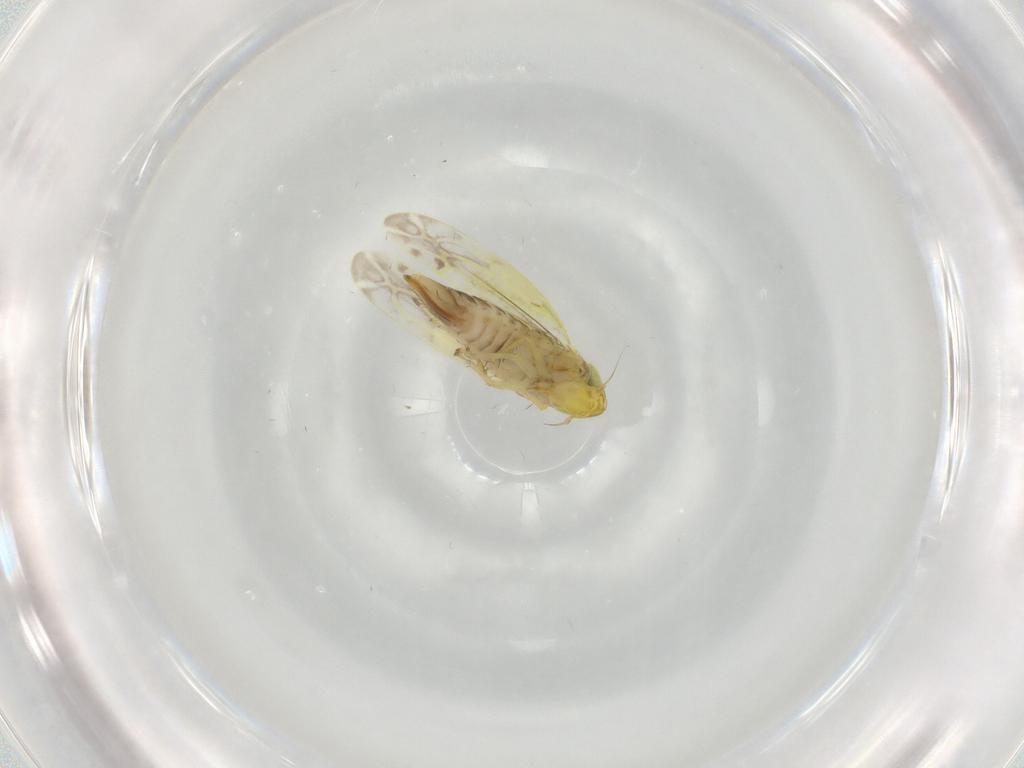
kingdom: Animalia
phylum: Arthropoda
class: Insecta
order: Hemiptera
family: Cicadellidae
